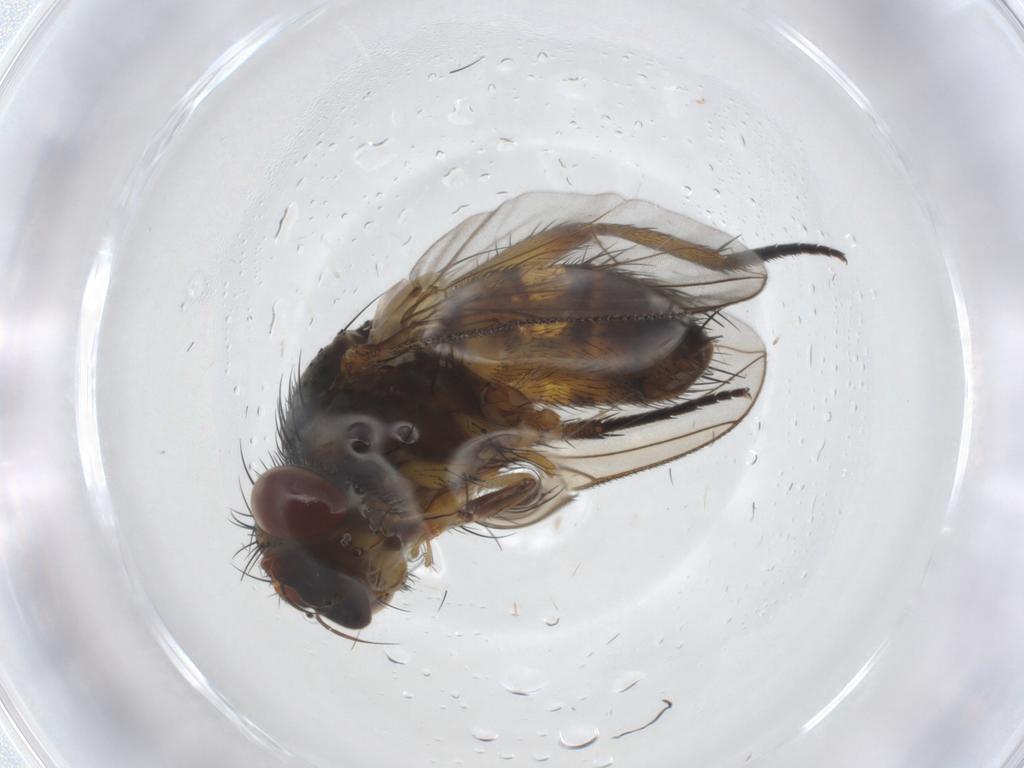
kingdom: Animalia
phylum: Arthropoda
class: Insecta
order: Diptera
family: Tachinidae
